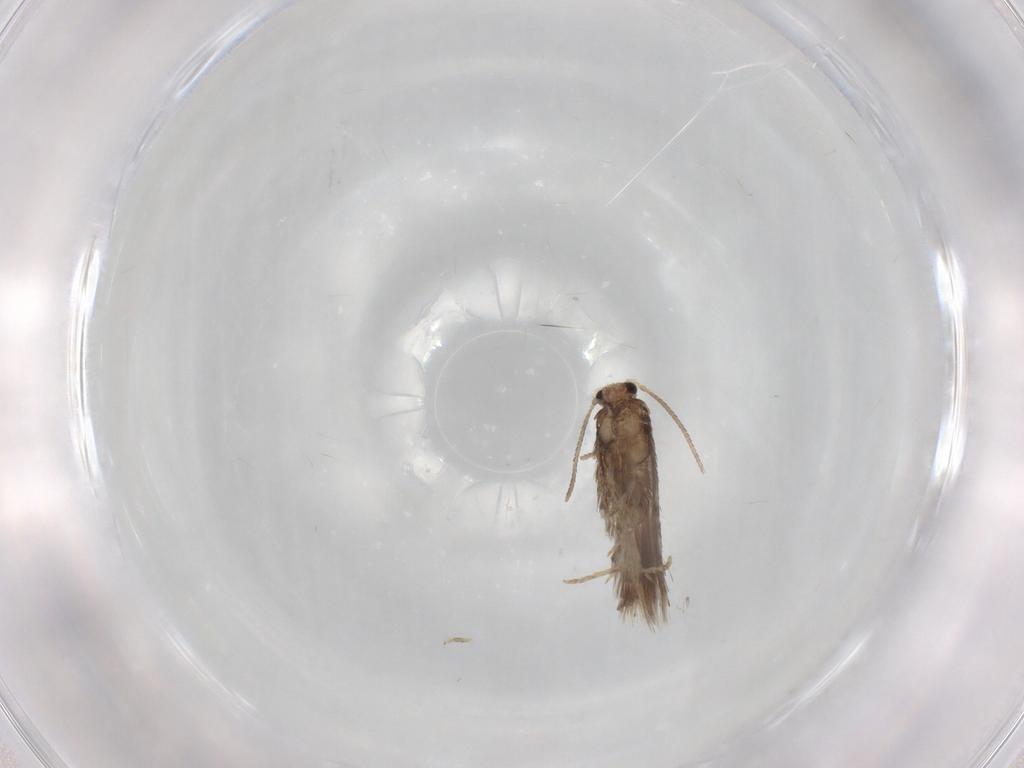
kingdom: Animalia
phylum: Arthropoda
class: Insecta
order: Lepidoptera
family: Nepticulidae
